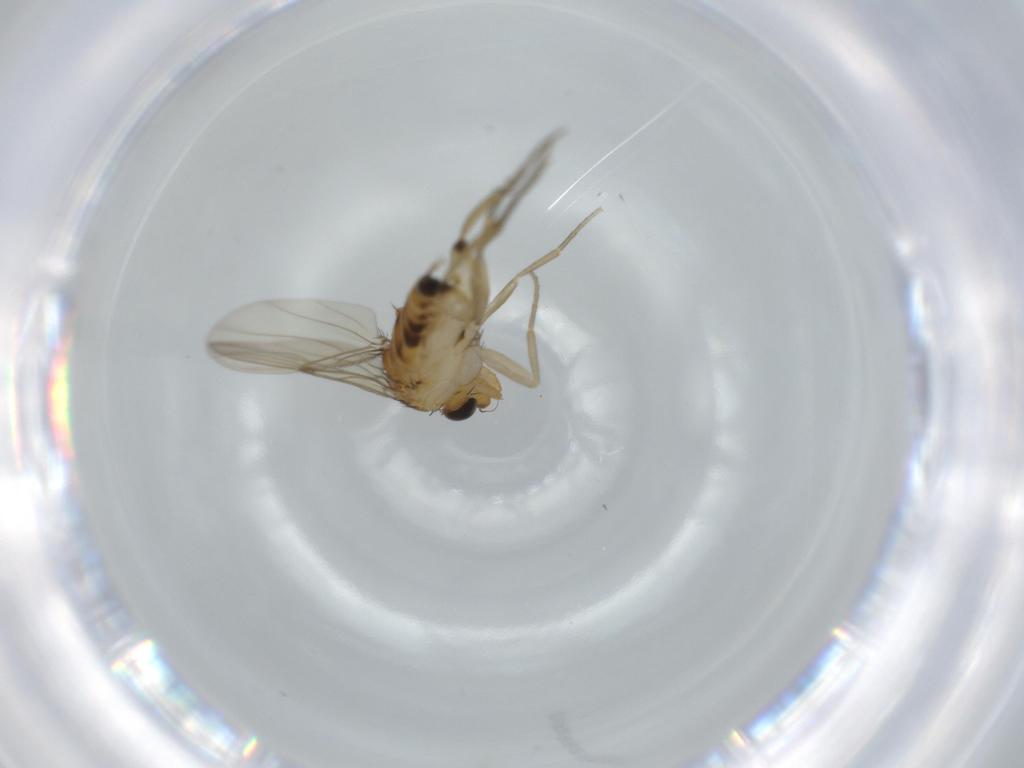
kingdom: Animalia
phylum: Arthropoda
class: Insecta
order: Diptera
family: Phoridae
